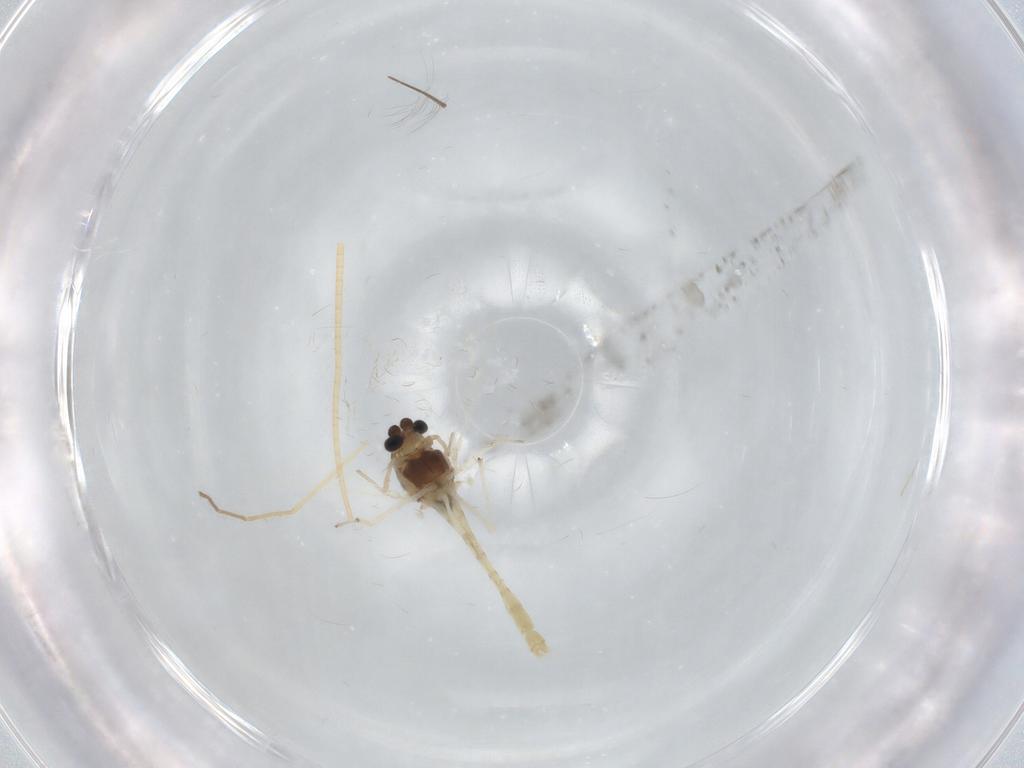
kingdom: Animalia
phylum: Arthropoda
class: Insecta
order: Diptera
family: Chironomidae
